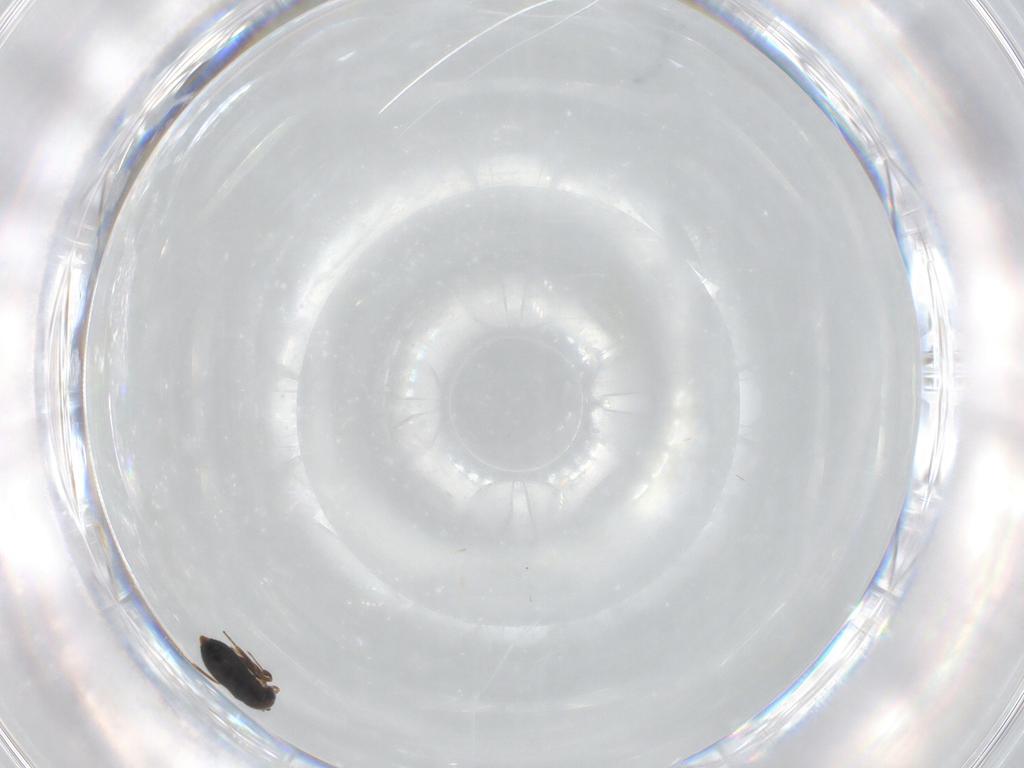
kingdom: Animalia
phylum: Arthropoda
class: Insecta
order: Hymenoptera
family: Scelionidae
